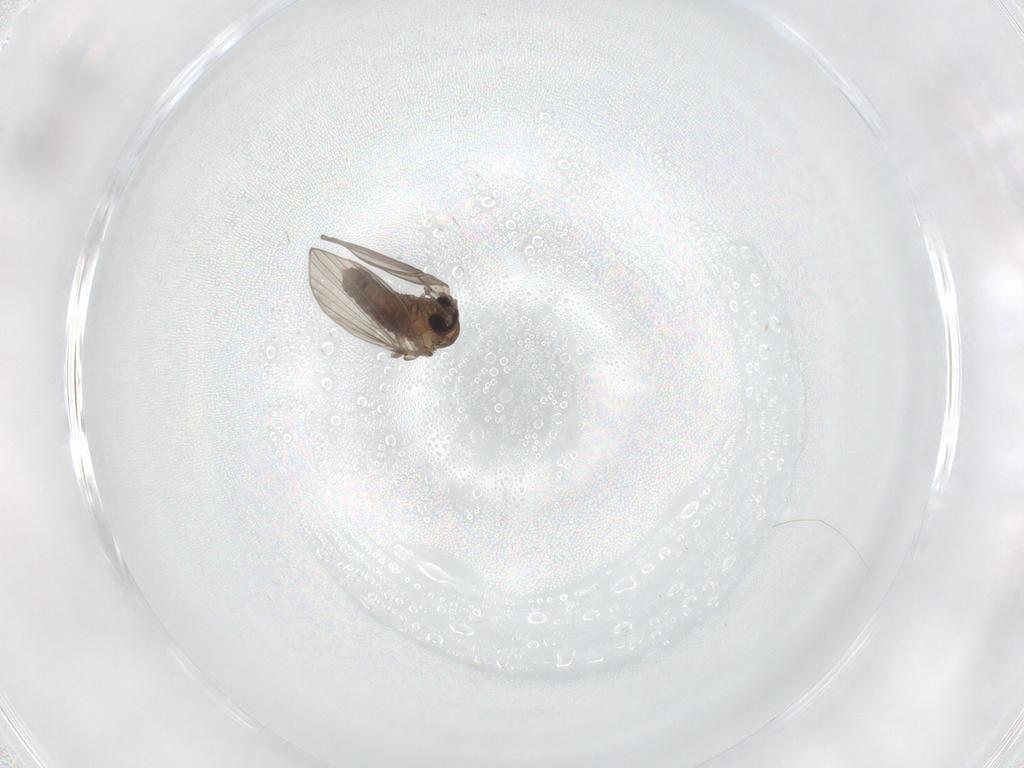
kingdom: Animalia
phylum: Arthropoda
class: Insecta
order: Diptera
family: Psychodidae
